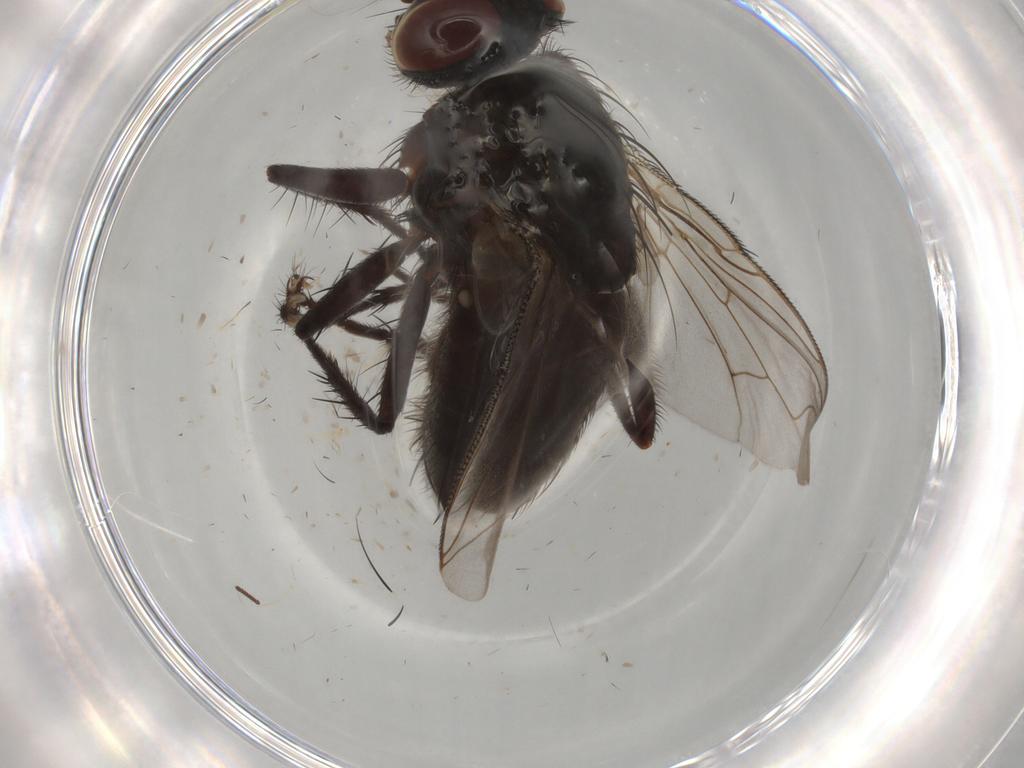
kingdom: Animalia
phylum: Arthropoda
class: Insecta
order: Diptera
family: Sarcophagidae
